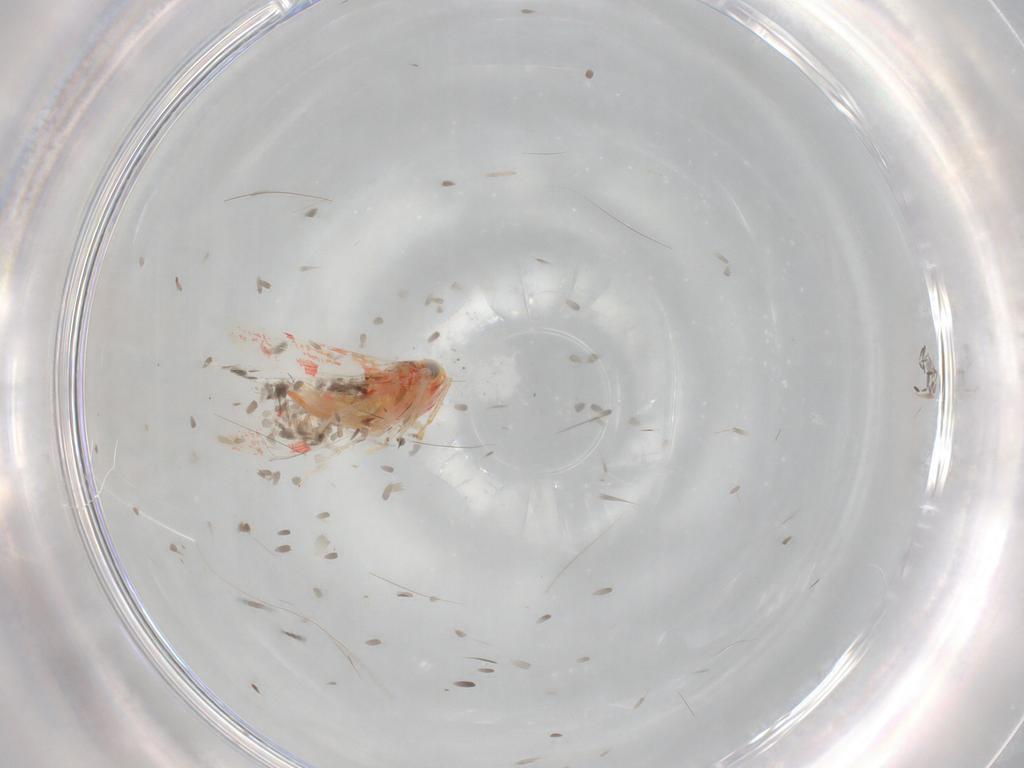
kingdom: Animalia
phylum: Arthropoda
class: Insecta
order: Hemiptera
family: Cicadellidae
